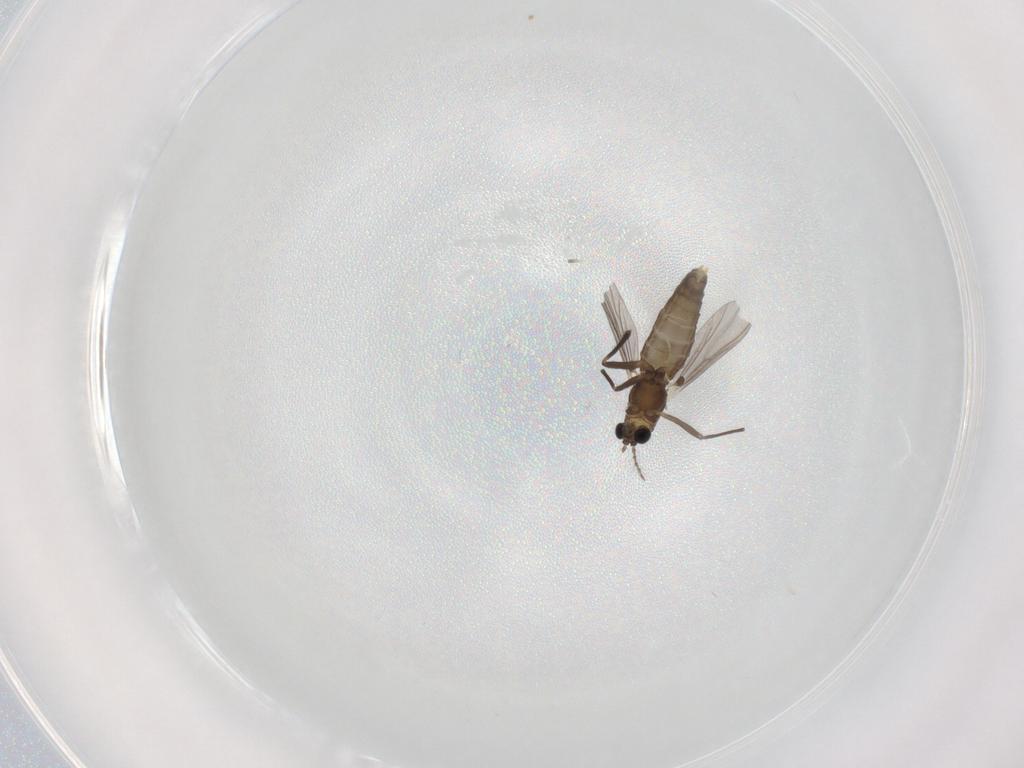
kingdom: Animalia
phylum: Arthropoda
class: Insecta
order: Diptera
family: Chironomidae
